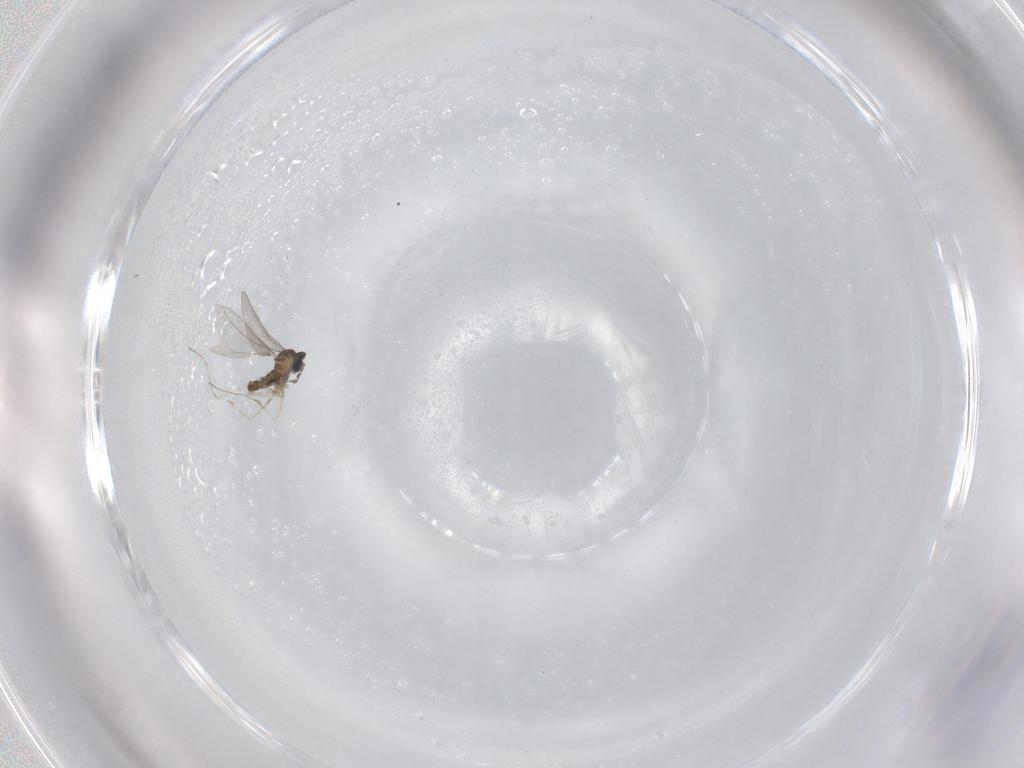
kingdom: Animalia
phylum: Arthropoda
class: Insecta
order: Diptera
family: Cecidomyiidae
